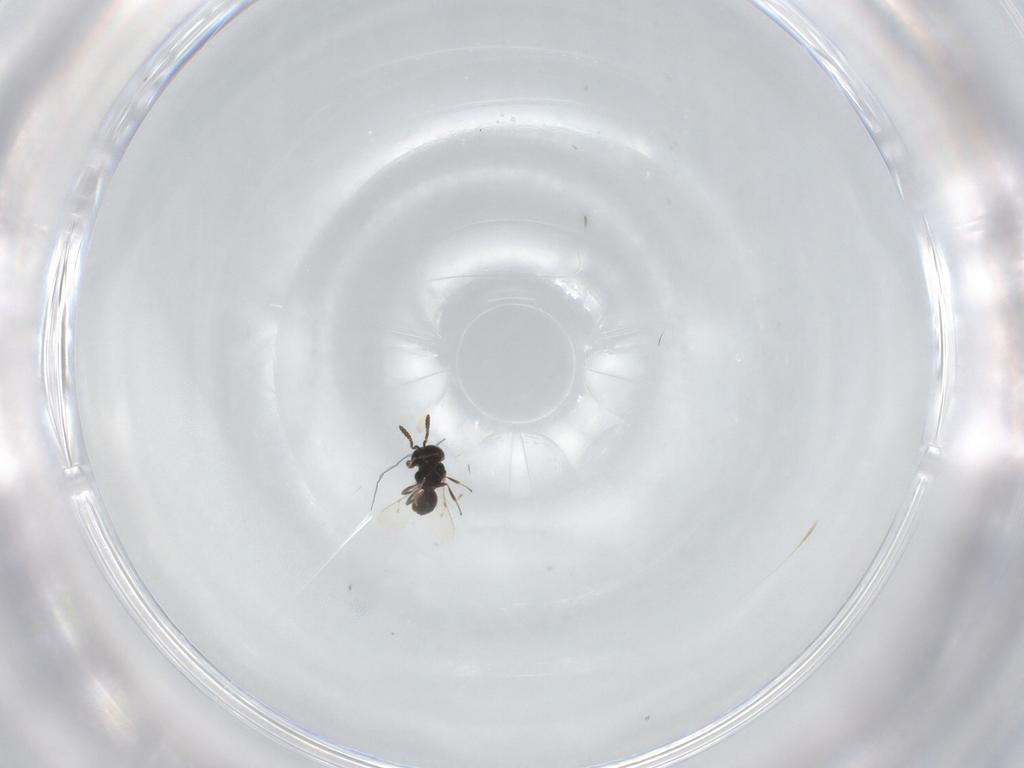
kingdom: Animalia
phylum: Arthropoda
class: Insecta
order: Hymenoptera
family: Scelionidae
